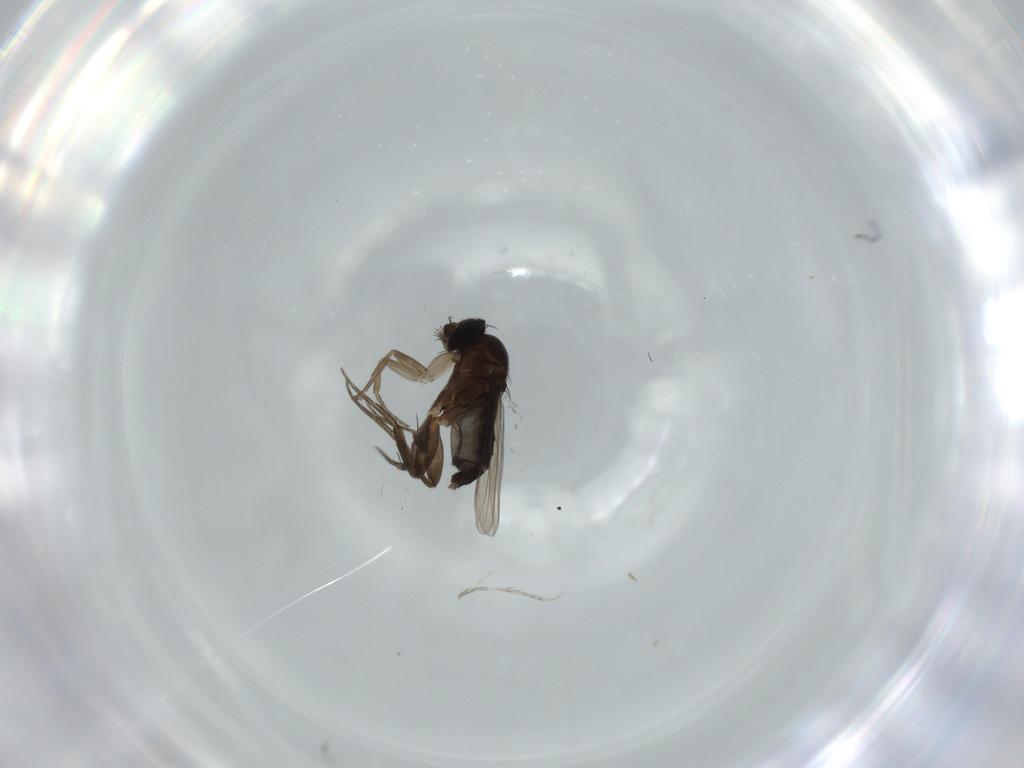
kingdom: Animalia
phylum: Arthropoda
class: Insecta
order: Diptera
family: Psychodidae
